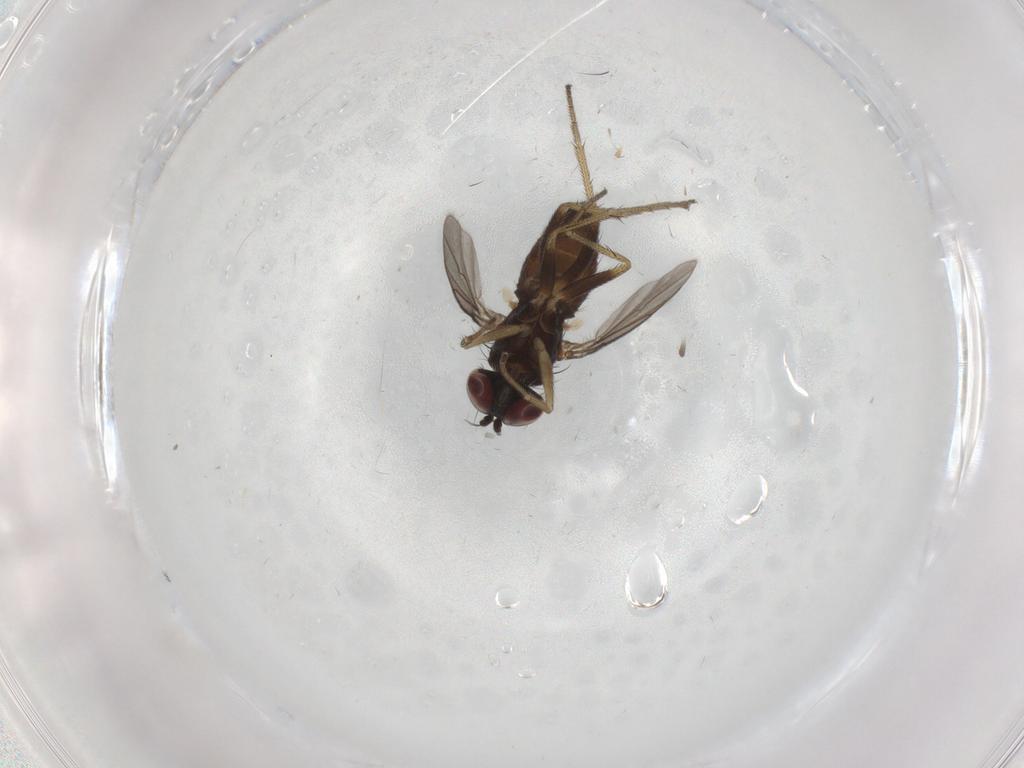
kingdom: Animalia
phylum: Arthropoda
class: Insecta
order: Diptera
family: Dolichopodidae
